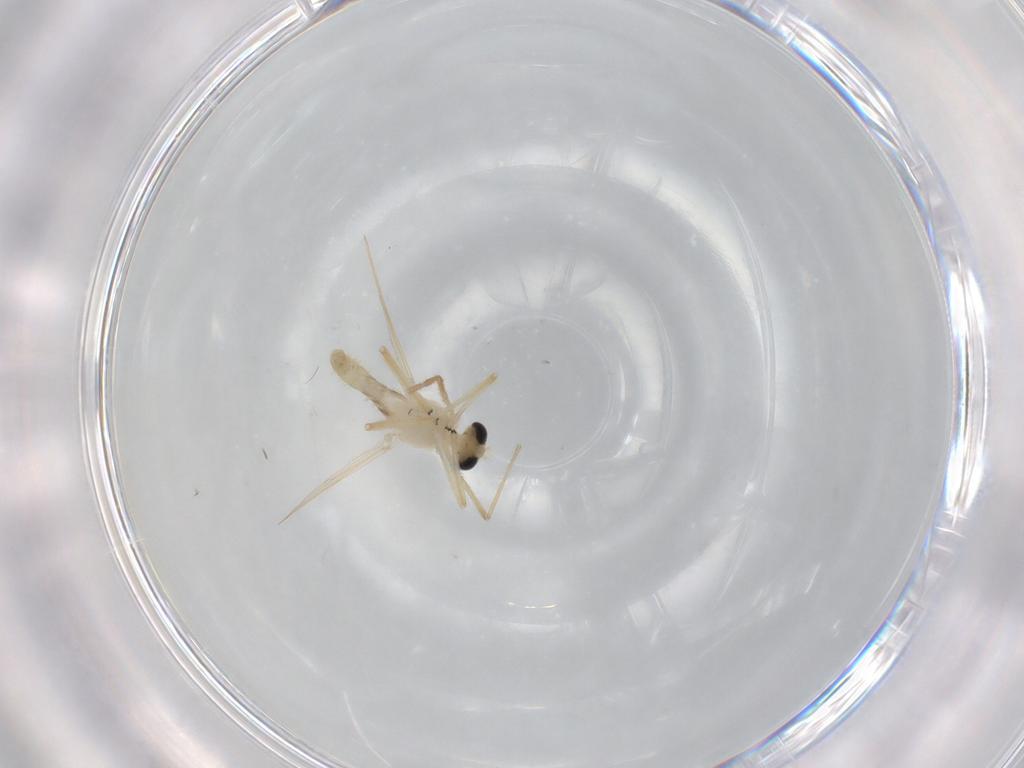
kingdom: Animalia
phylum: Arthropoda
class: Insecta
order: Diptera
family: Chironomidae
